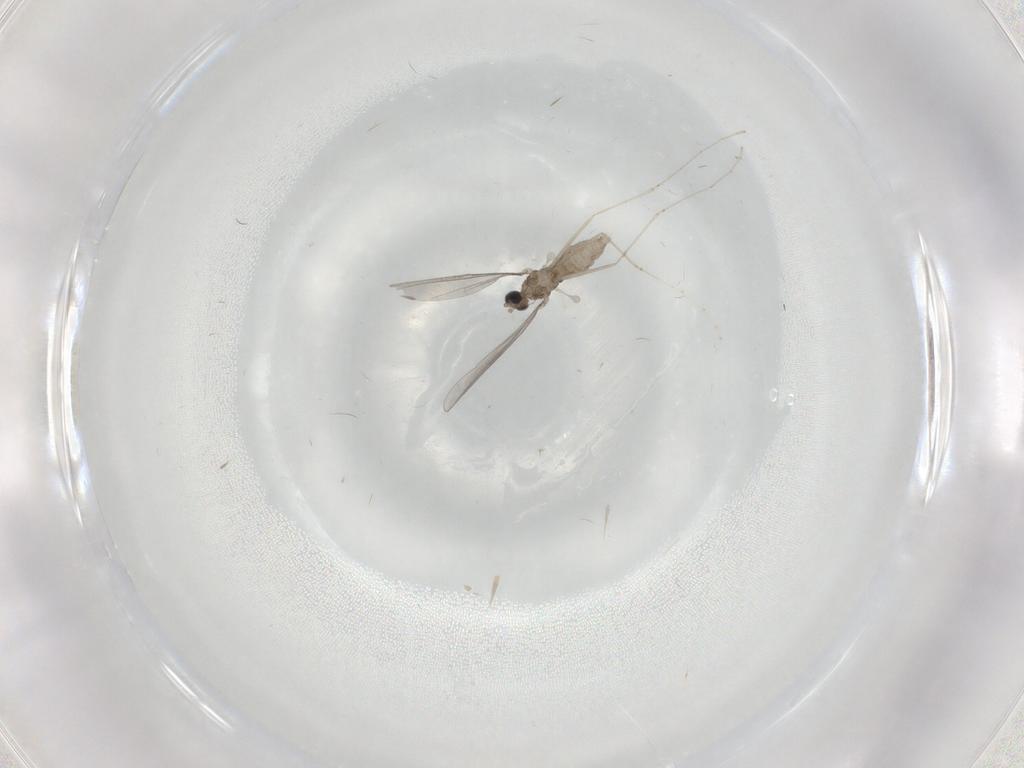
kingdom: Animalia
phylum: Arthropoda
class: Insecta
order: Diptera
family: Cecidomyiidae
